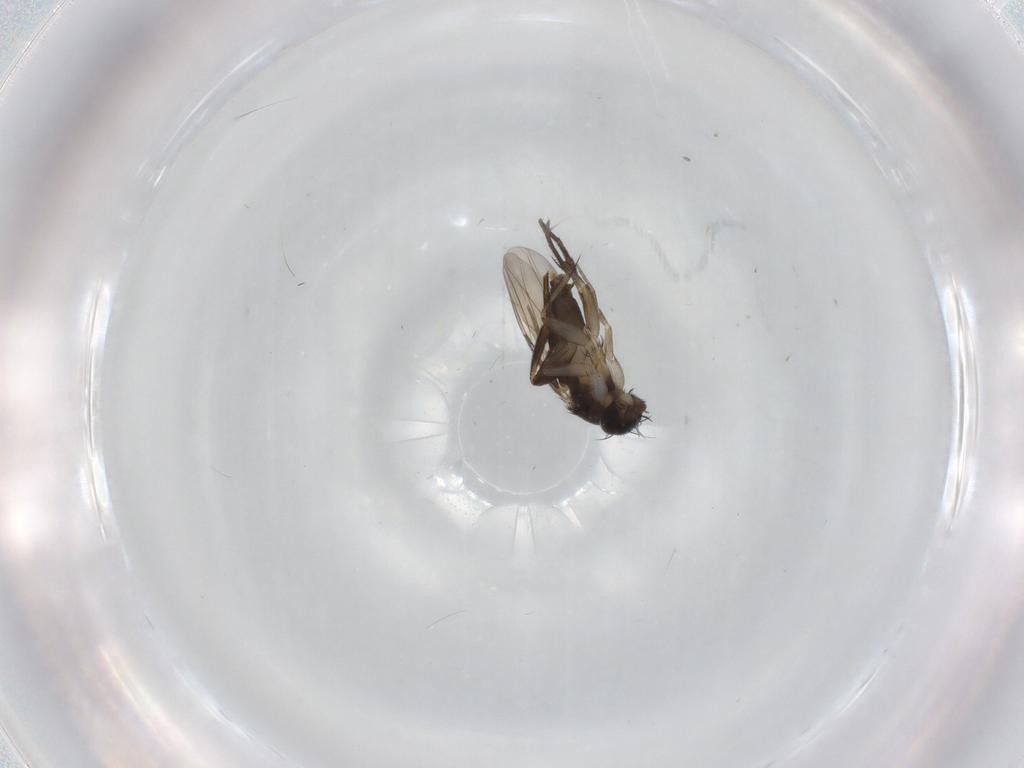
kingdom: Animalia
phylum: Arthropoda
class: Insecta
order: Diptera
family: Phoridae
